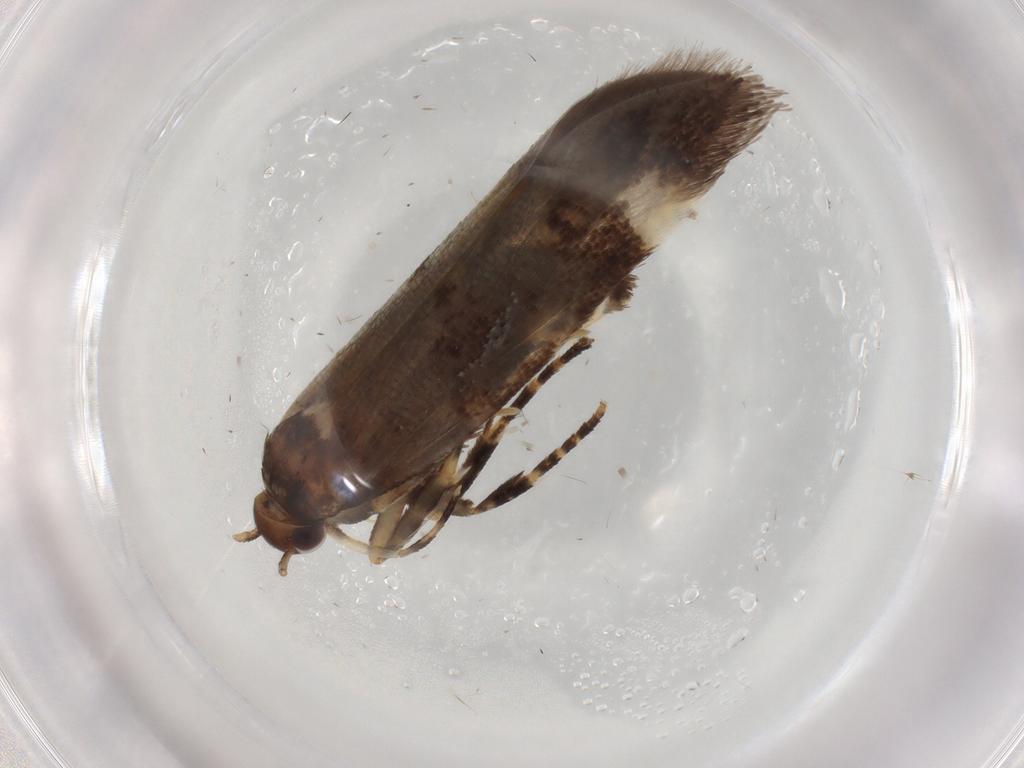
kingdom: Animalia
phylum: Arthropoda
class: Insecta
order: Lepidoptera
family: Gelechiidae
